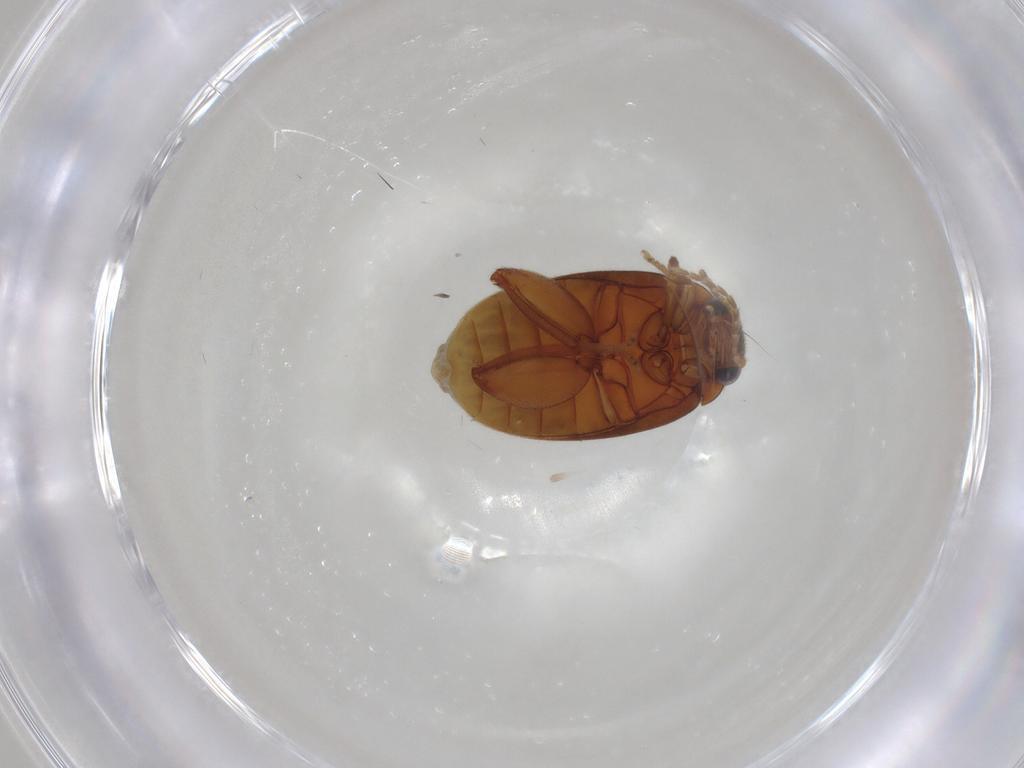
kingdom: Animalia
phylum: Arthropoda
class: Insecta
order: Coleoptera
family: Scirtidae
